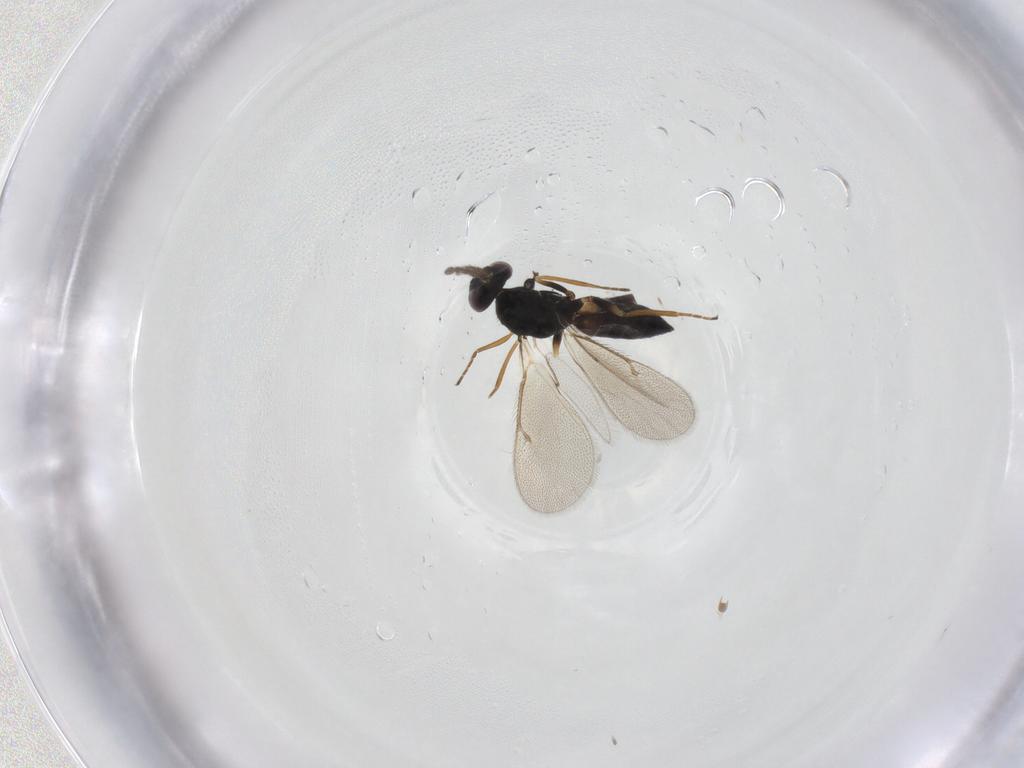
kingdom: Animalia
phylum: Arthropoda
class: Insecta
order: Hymenoptera
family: Eulophidae
